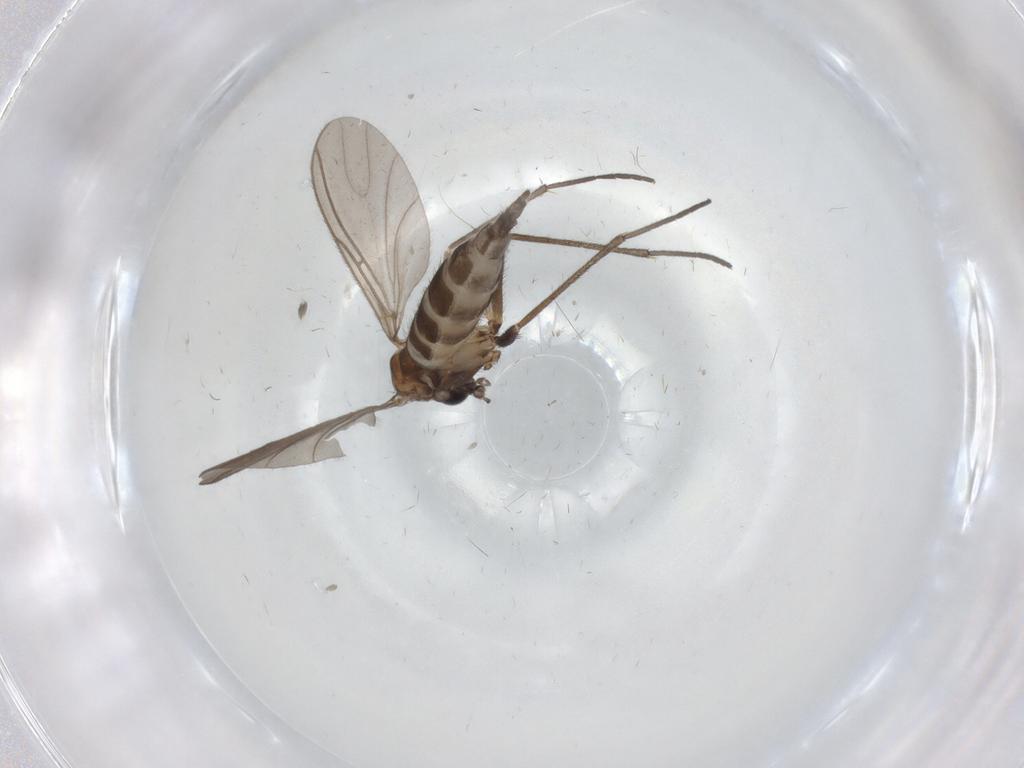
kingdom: Animalia
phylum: Arthropoda
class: Insecta
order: Diptera
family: Sciaridae
